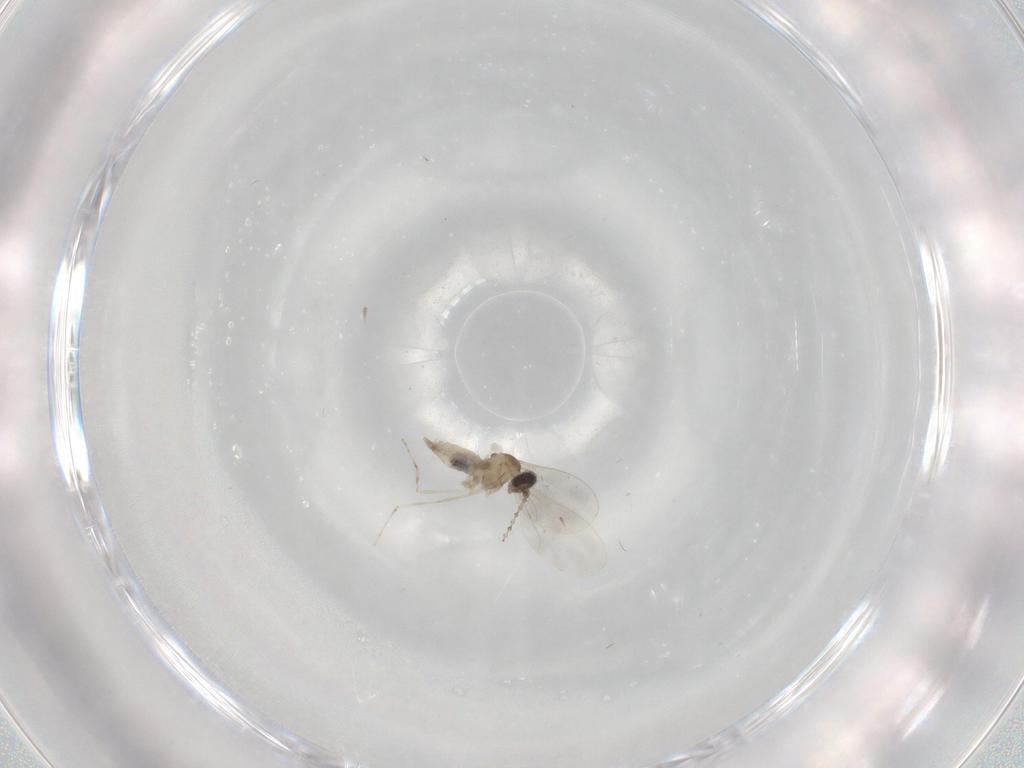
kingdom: Animalia
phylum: Arthropoda
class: Insecta
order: Diptera
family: Cecidomyiidae
